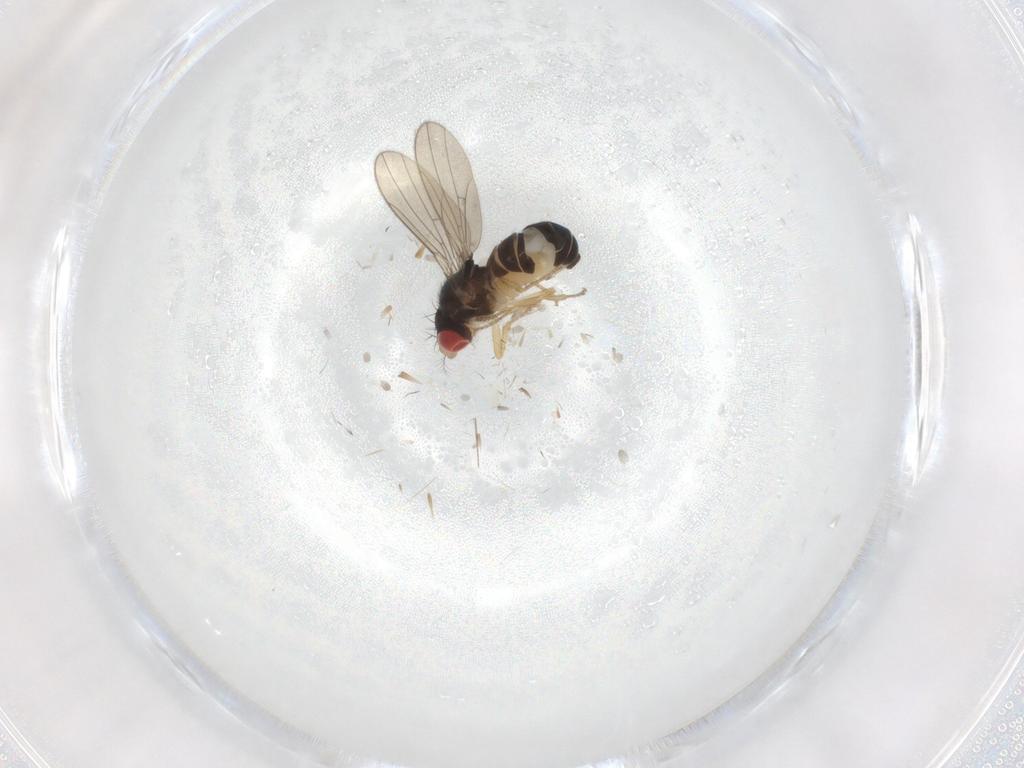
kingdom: Animalia
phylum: Arthropoda
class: Insecta
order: Diptera
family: Drosophilidae
